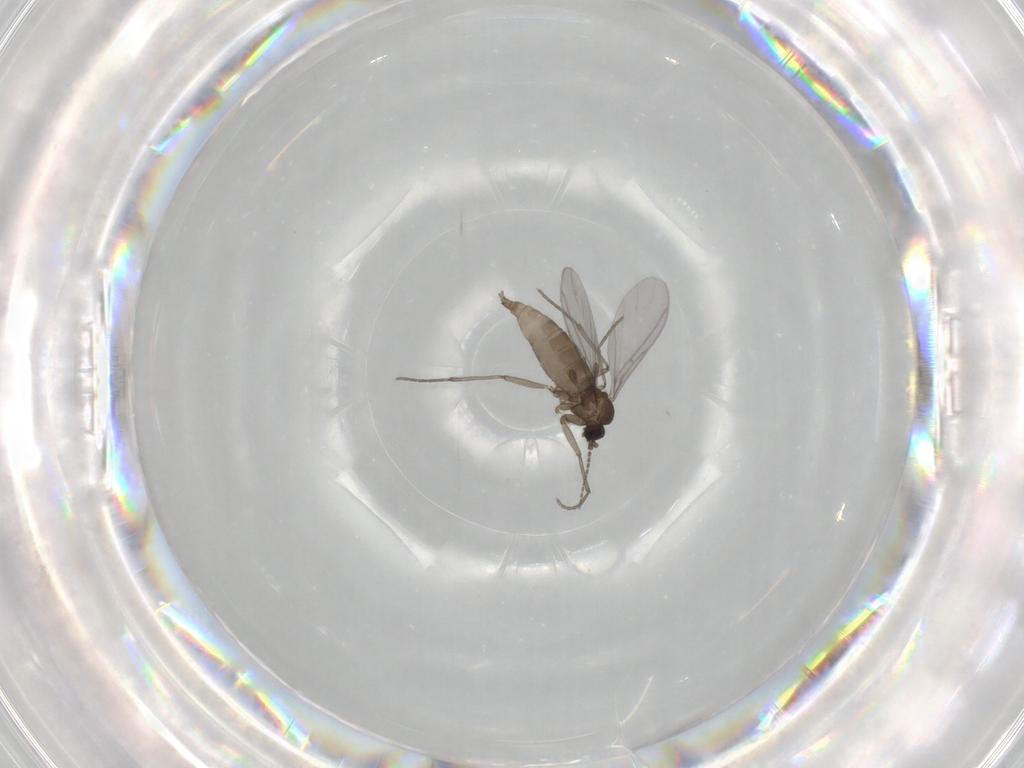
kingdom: Animalia
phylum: Arthropoda
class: Insecta
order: Diptera
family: Sciaridae
